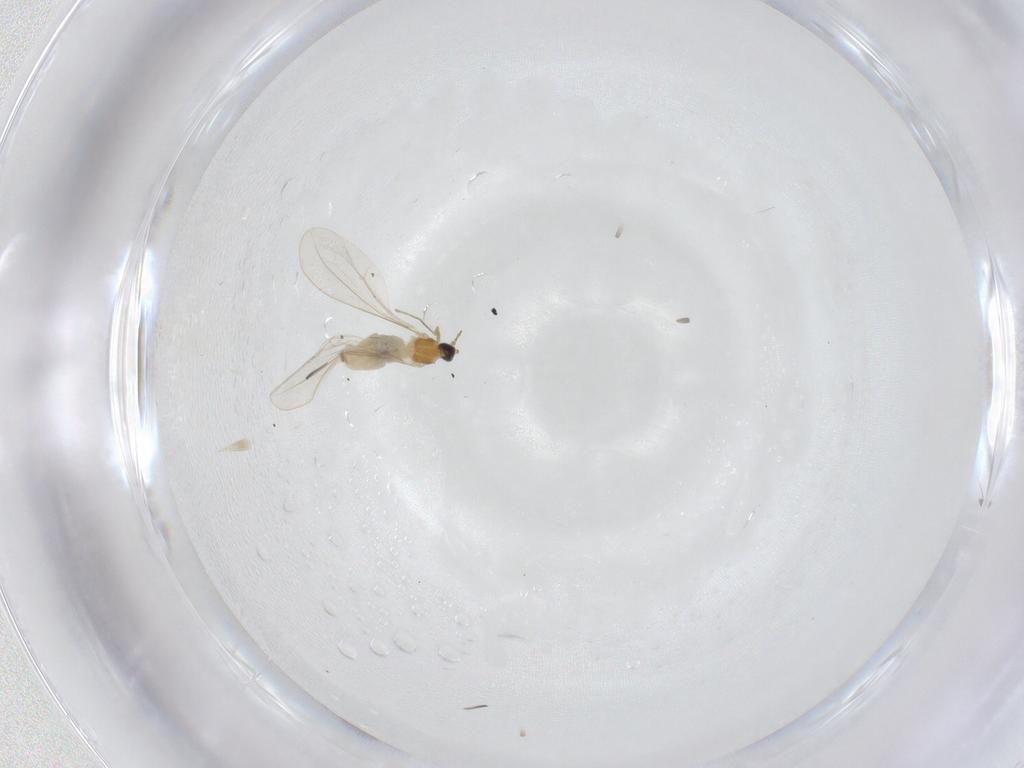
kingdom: Animalia
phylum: Arthropoda
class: Insecta
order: Diptera
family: Cecidomyiidae
